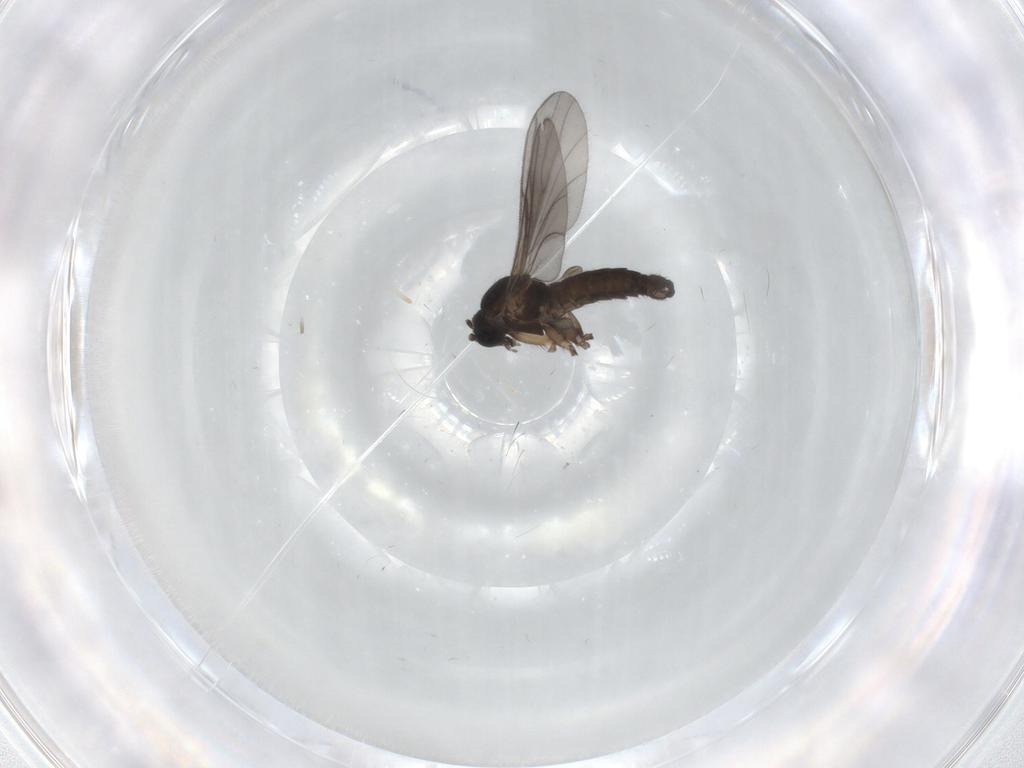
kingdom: Animalia
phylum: Arthropoda
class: Insecta
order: Diptera
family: Sciaridae
